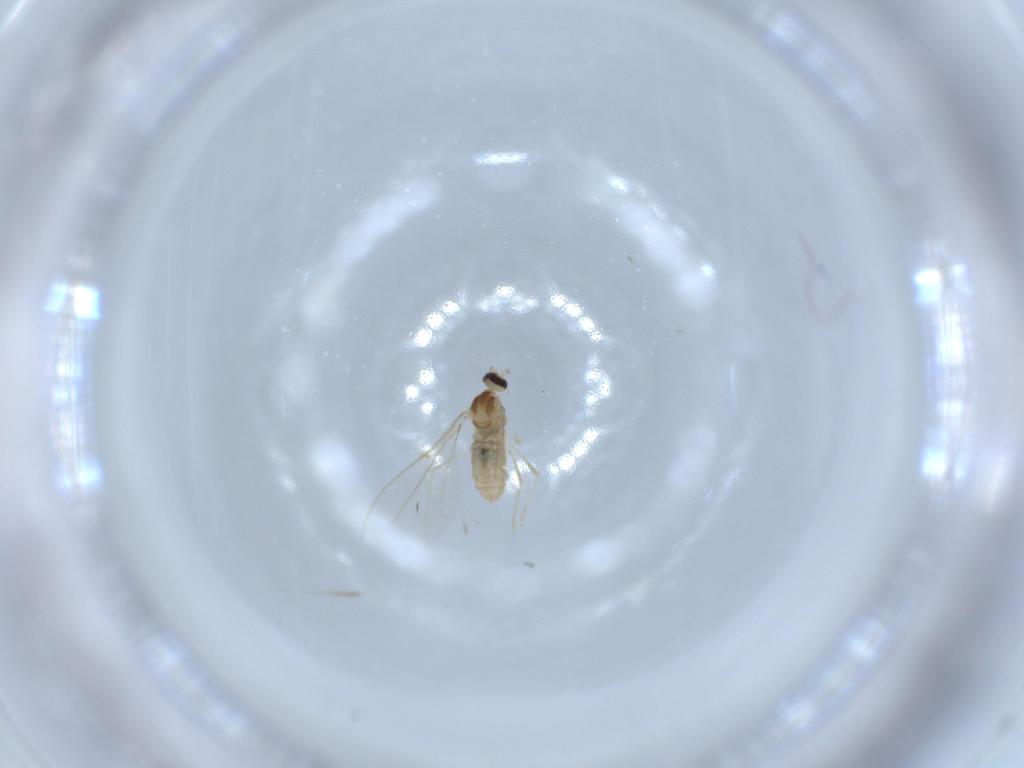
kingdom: Animalia
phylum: Arthropoda
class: Insecta
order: Diptera
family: Cecidomyiidae
